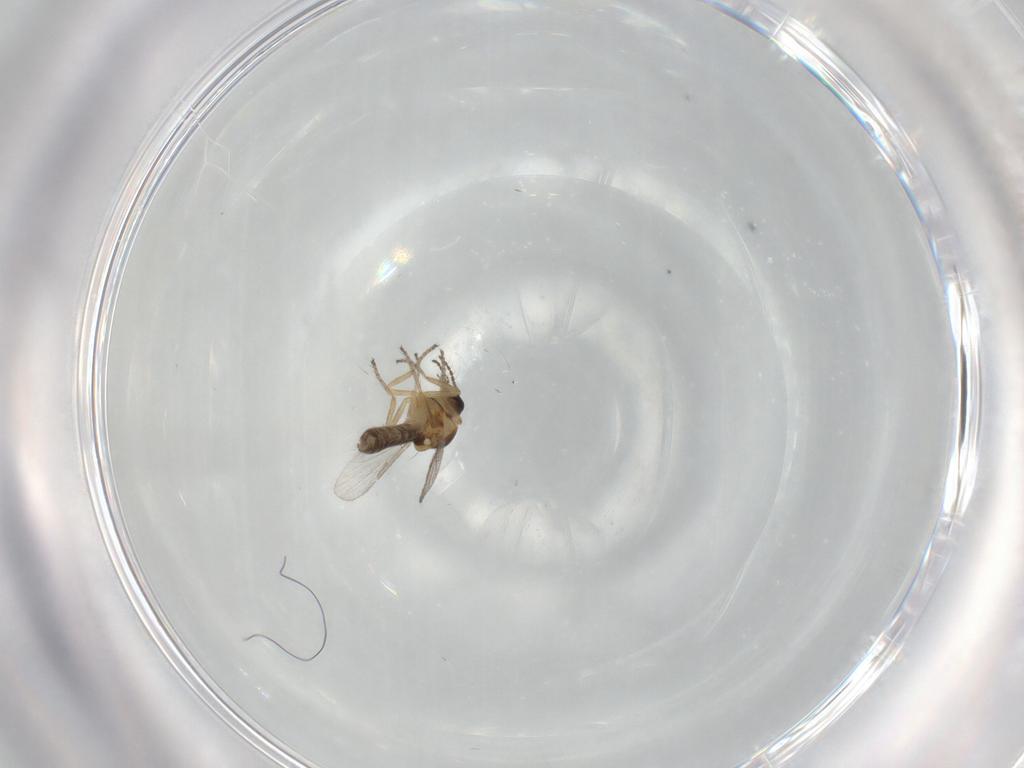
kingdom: Animalia
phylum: Arthropoda
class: Insecta
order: Diptera
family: Ceratopogonidae
